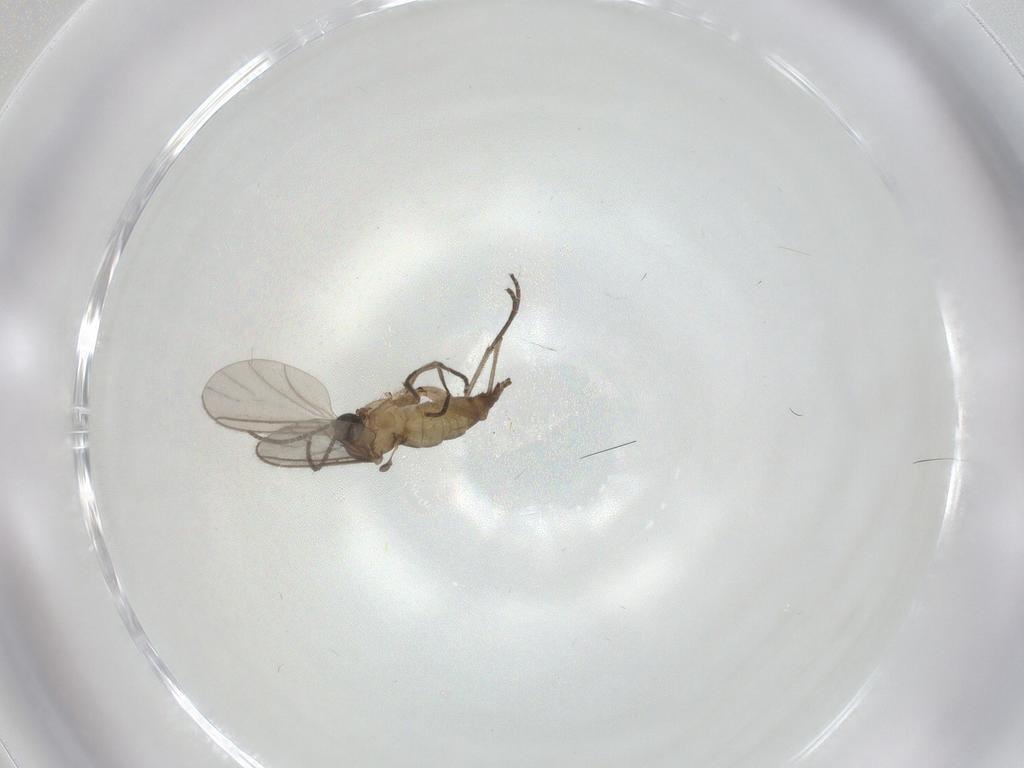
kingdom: Animalia
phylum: Arthropoda
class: Insecta
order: Diptera
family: Sciaridae
